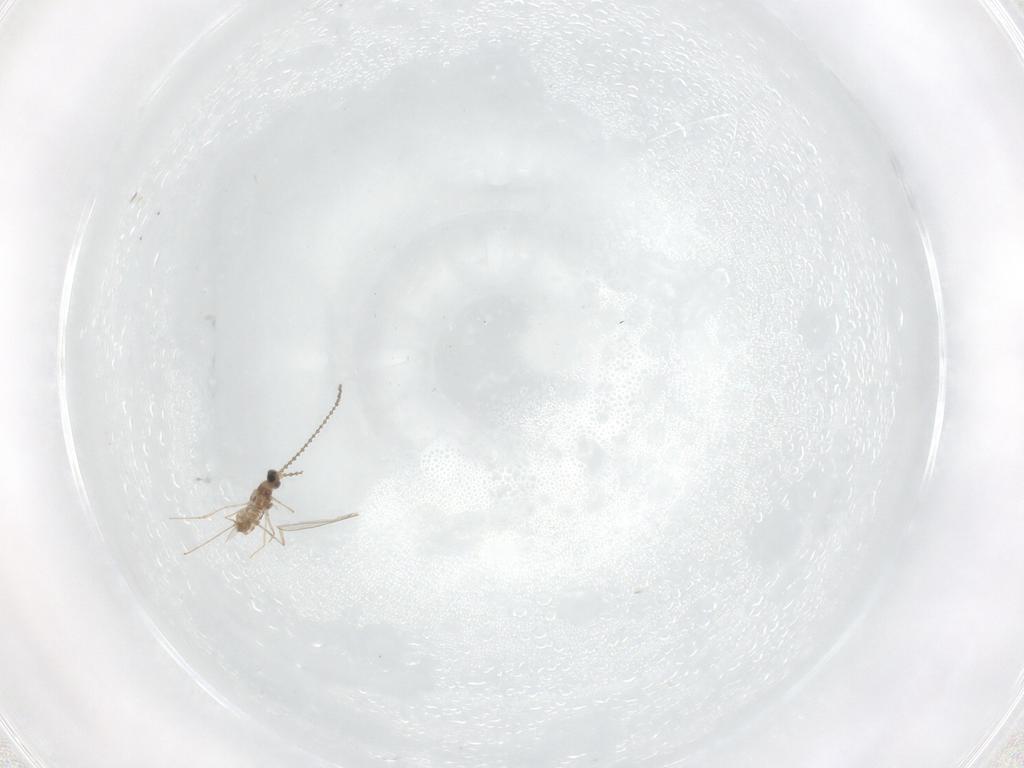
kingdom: Animalia
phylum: Arthropoda
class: Insecta
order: Diptera
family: Cecidomyiidae
